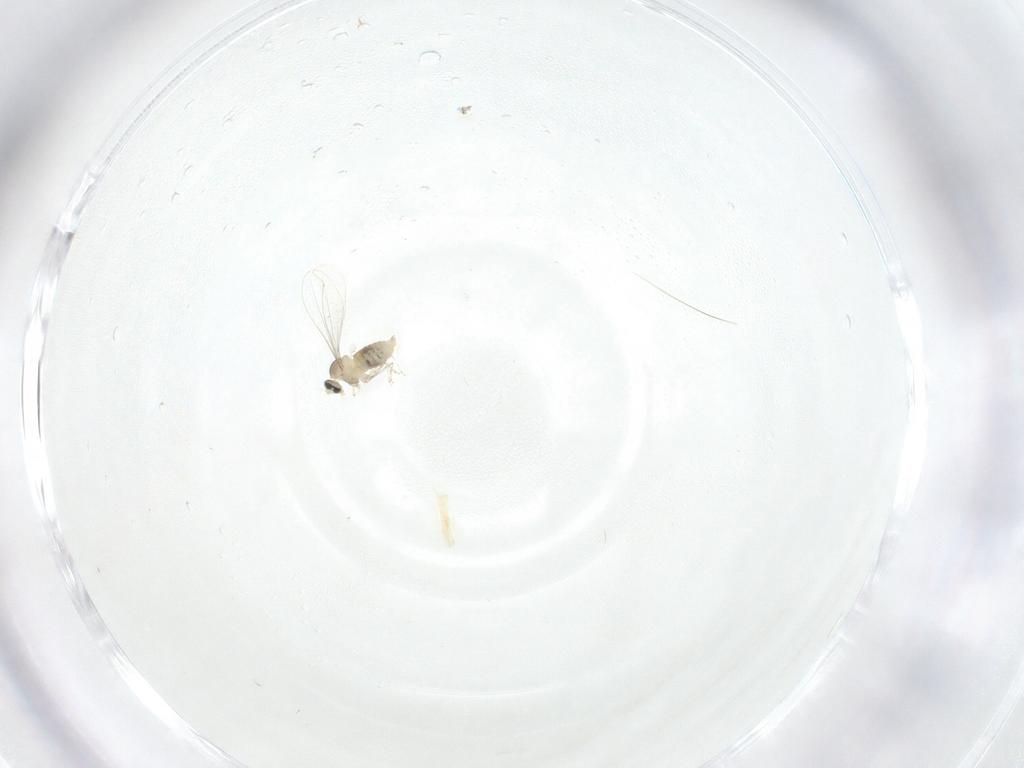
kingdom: Animalia
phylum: Arthropoda
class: Insecta
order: Diptera
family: Cecidomyiidae
